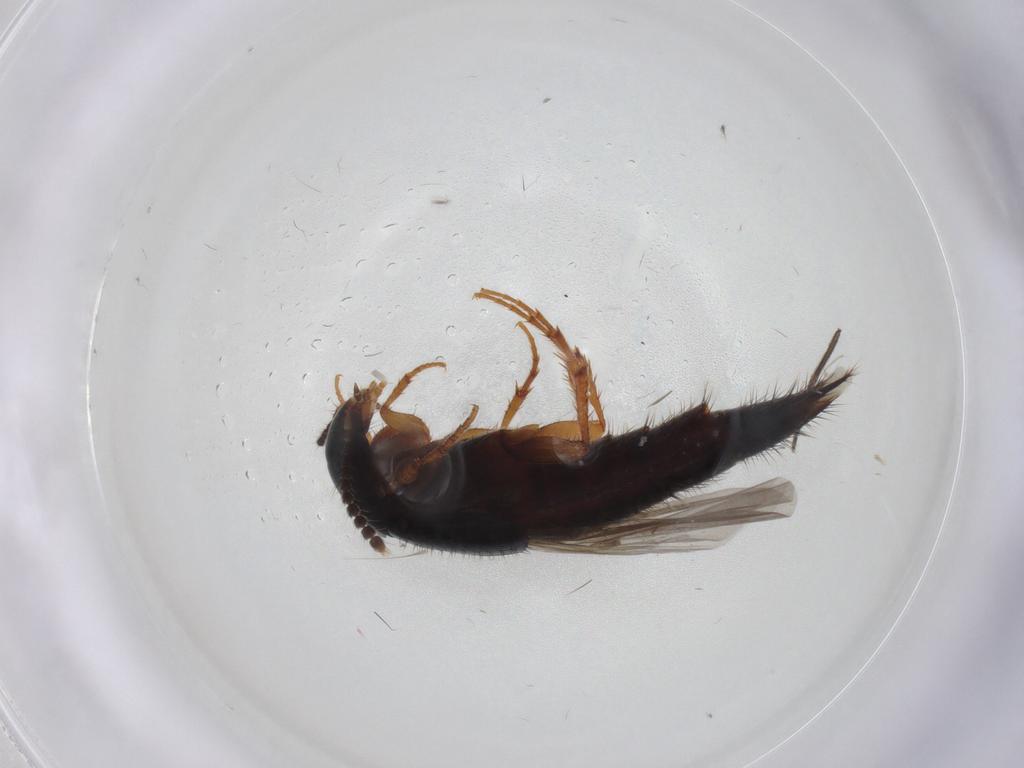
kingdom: Animalia
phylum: Arthropoda
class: Insecta
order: Coleoptera
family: Staphylinidae
